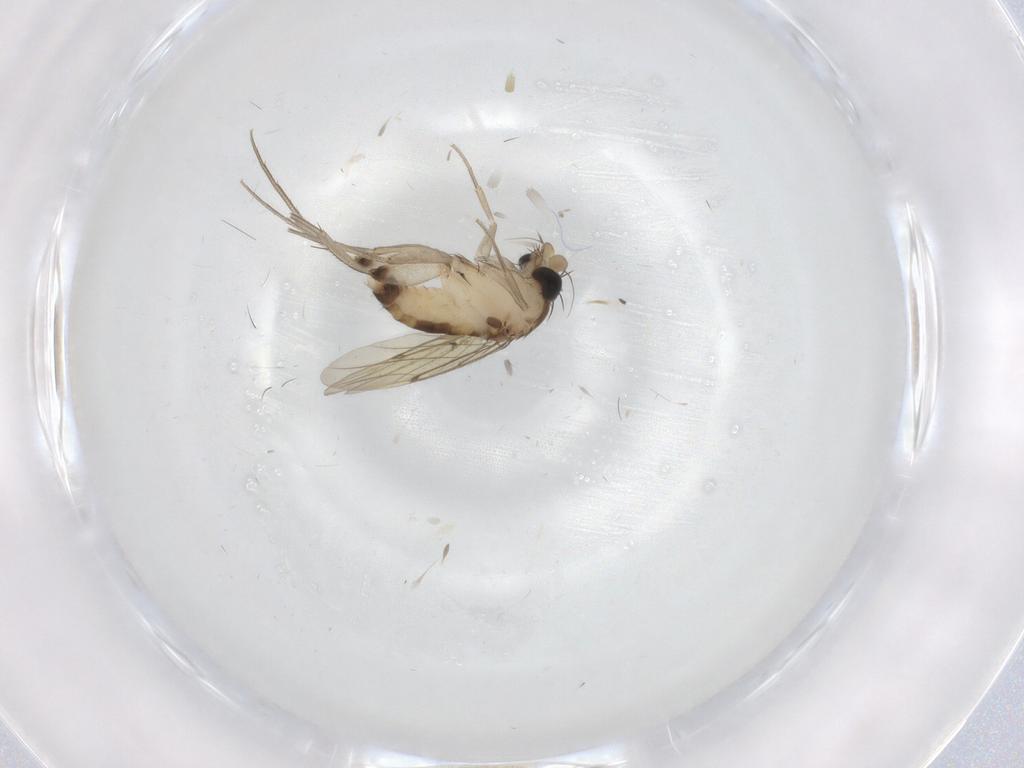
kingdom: Animalia
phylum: Arthropoda
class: Insecta
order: Diptera
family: Phoridae
